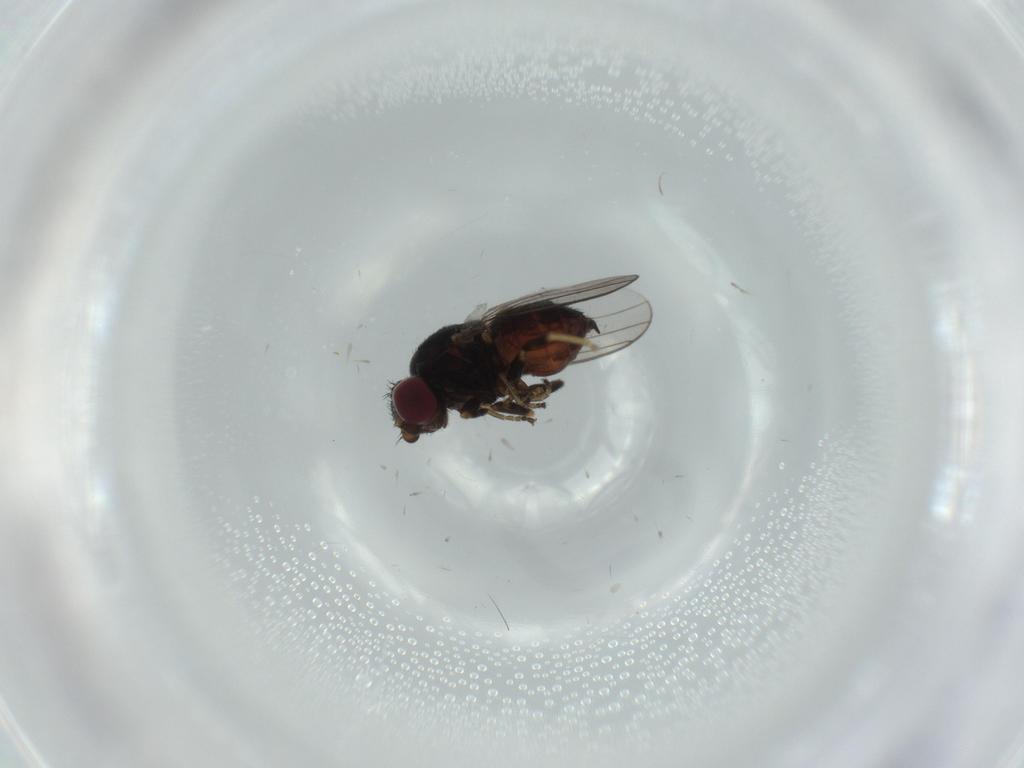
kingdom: Animalia
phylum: Arthropoda
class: Insecta
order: Diptera
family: Chloropidae
